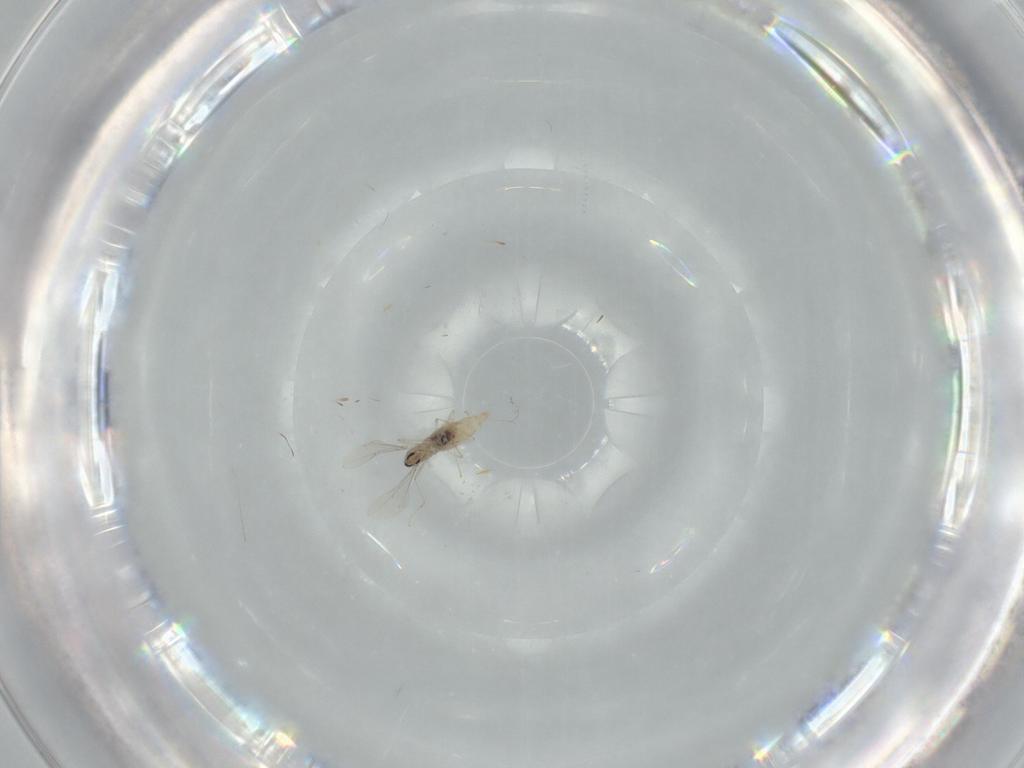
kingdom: Animalia
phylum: Arthropoda
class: Insecta
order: Diptera
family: Cecidomyiidae
